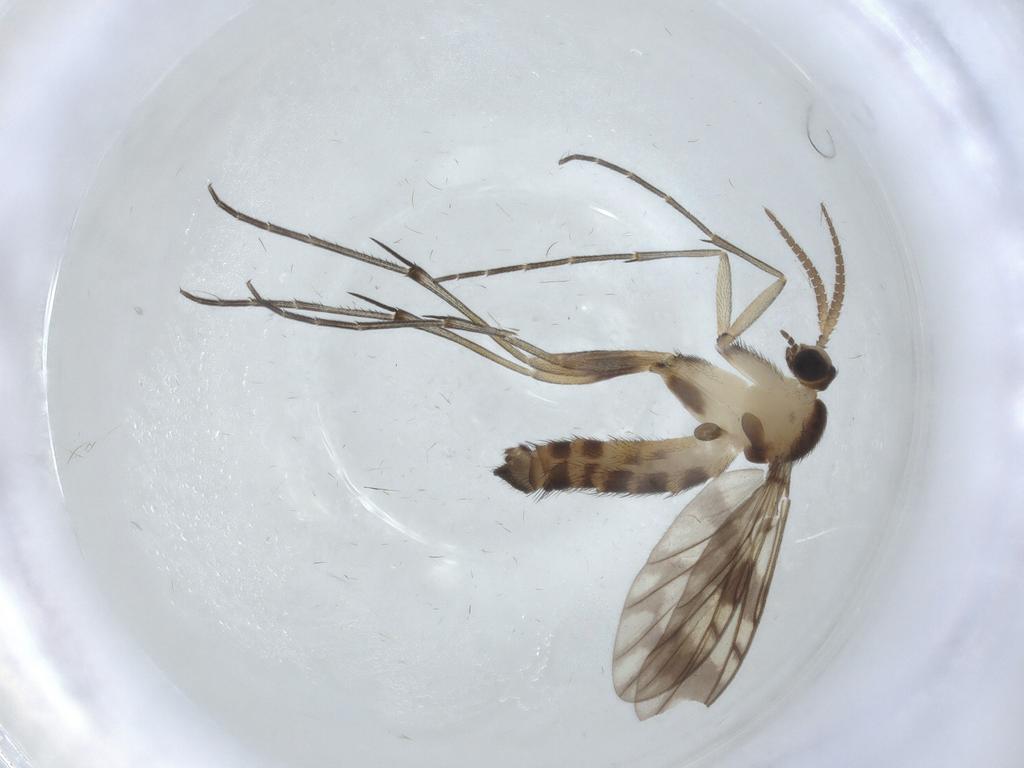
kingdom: Animalia
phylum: Arthropoda
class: Insecta
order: Diptera
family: Keroplatidae
